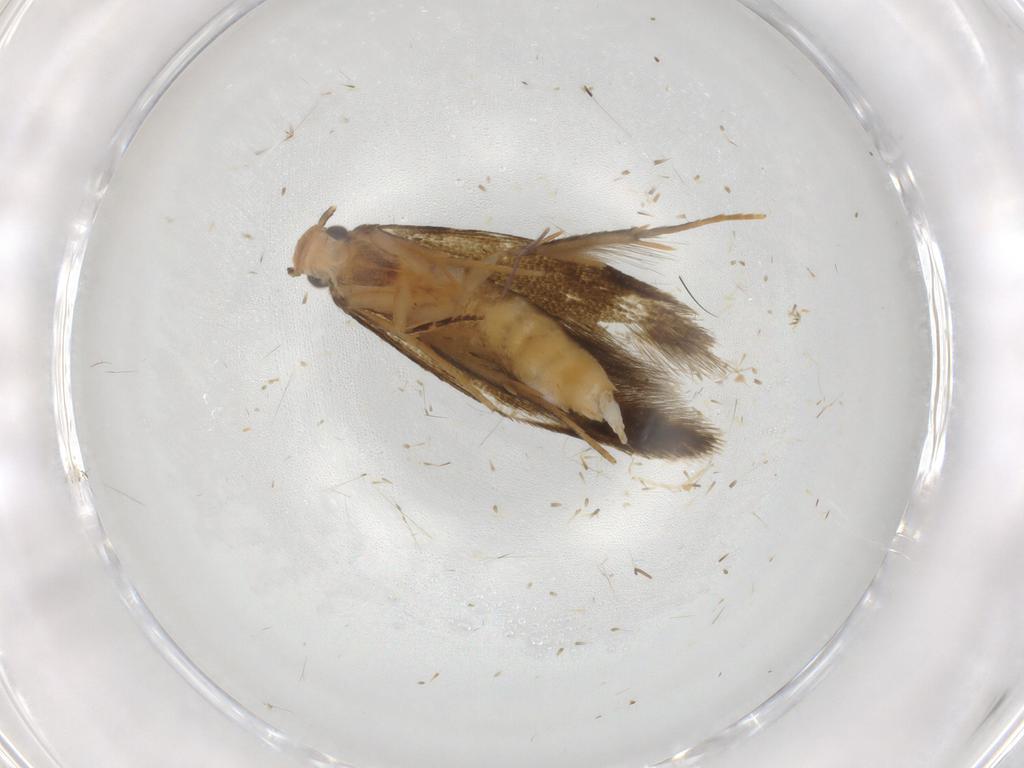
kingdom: Animalia
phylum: Arthropoda
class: Insecta
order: Lepidoptera
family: Tineidae
